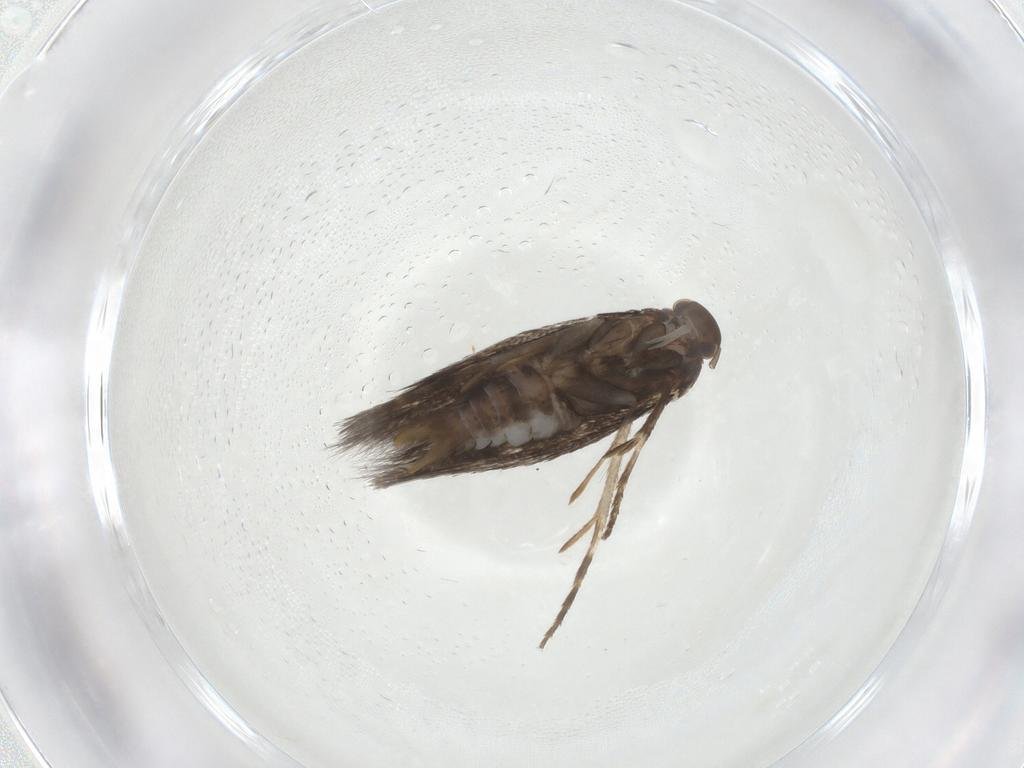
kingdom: Animalia
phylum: Arthropoda
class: Insecta
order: Lepidoptera
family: Elachistidae
